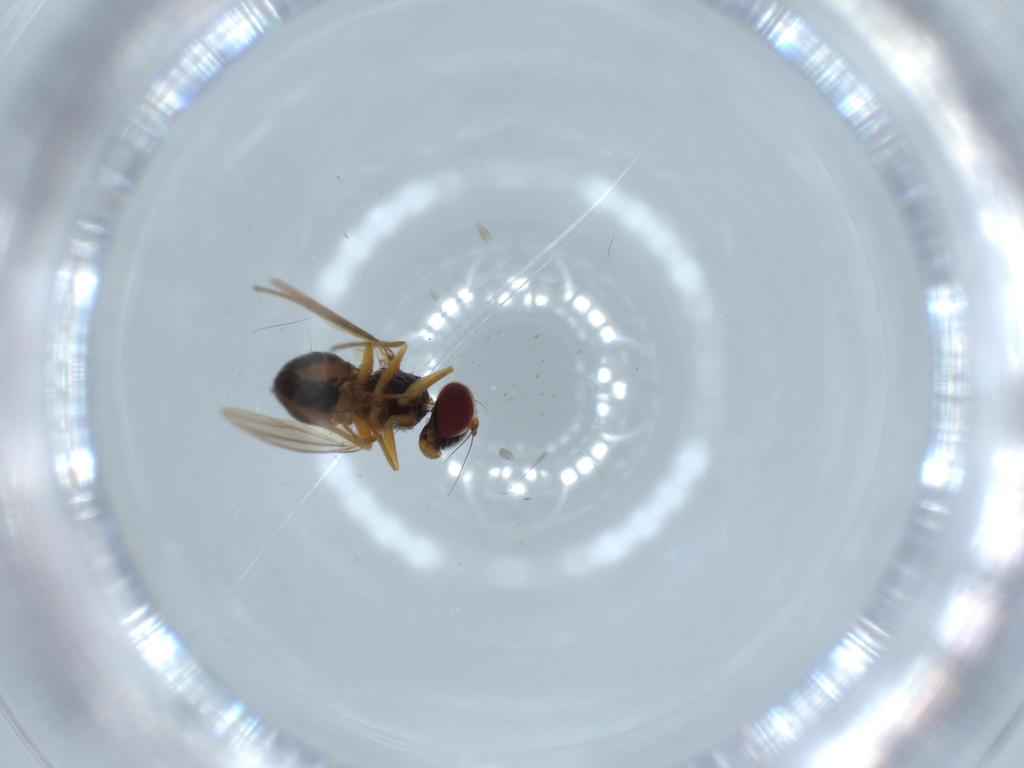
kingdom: Animalia
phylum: Arthropoda
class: Insecta
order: Diptera
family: Dolichopodidae
